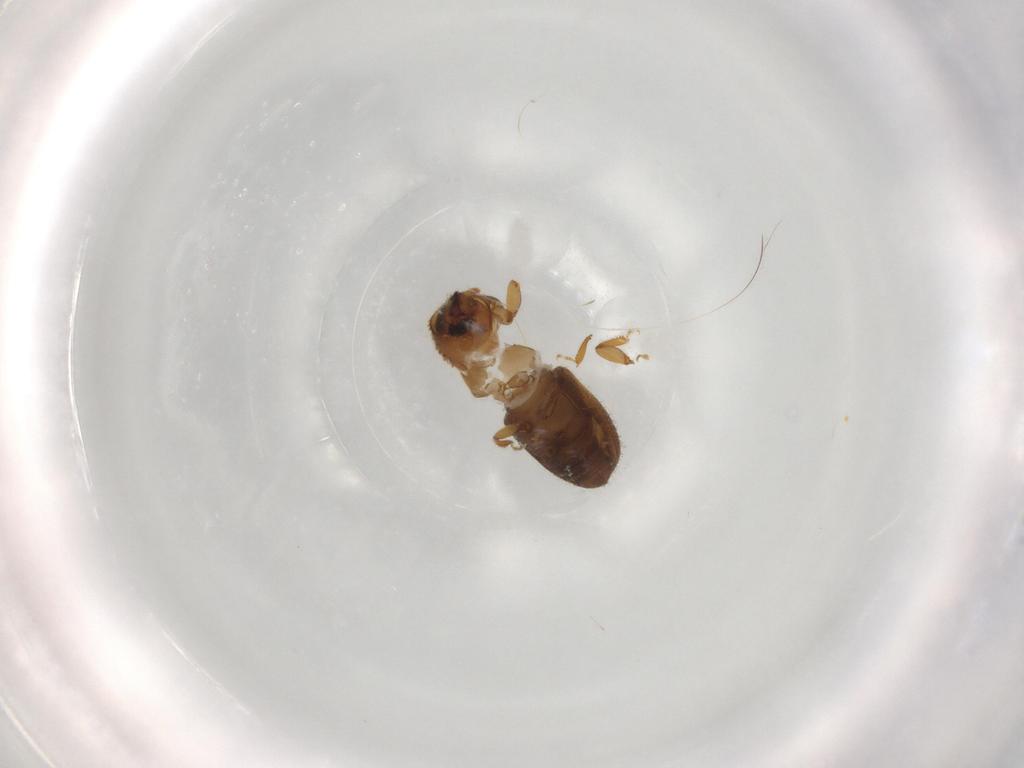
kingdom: Animalia
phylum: Arthropoda
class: Insecta
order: Coleoptera
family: Curculionidae
